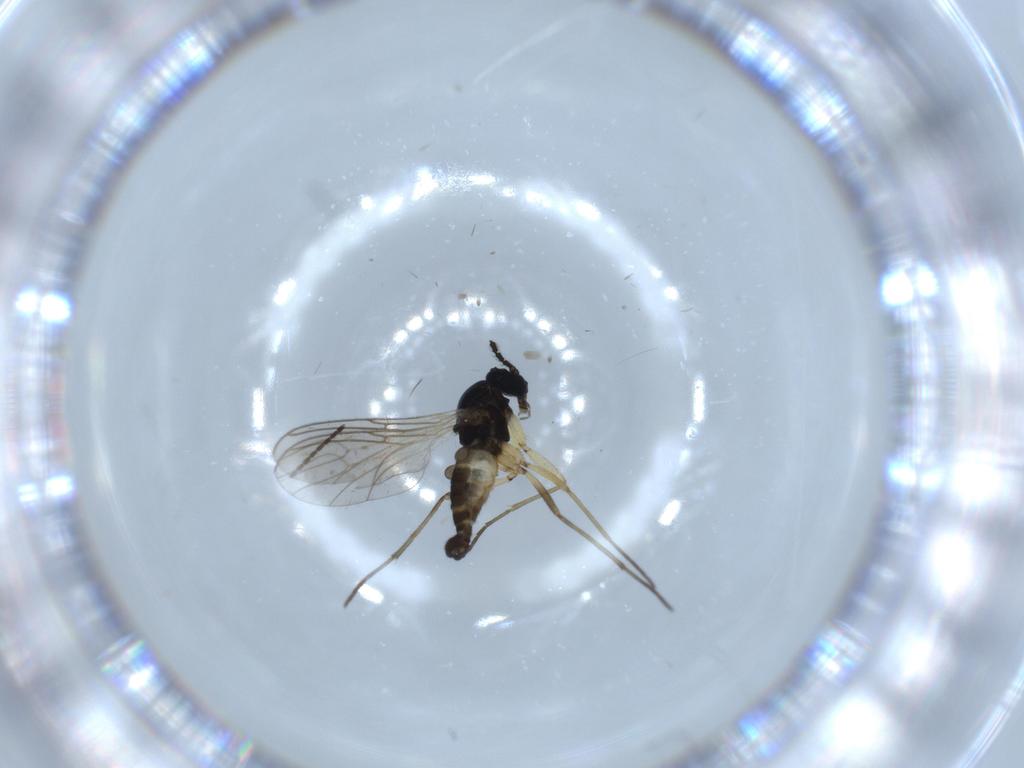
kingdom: Animalia
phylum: Arthropoda
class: Insecta
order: Diptera
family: Sciaridae
